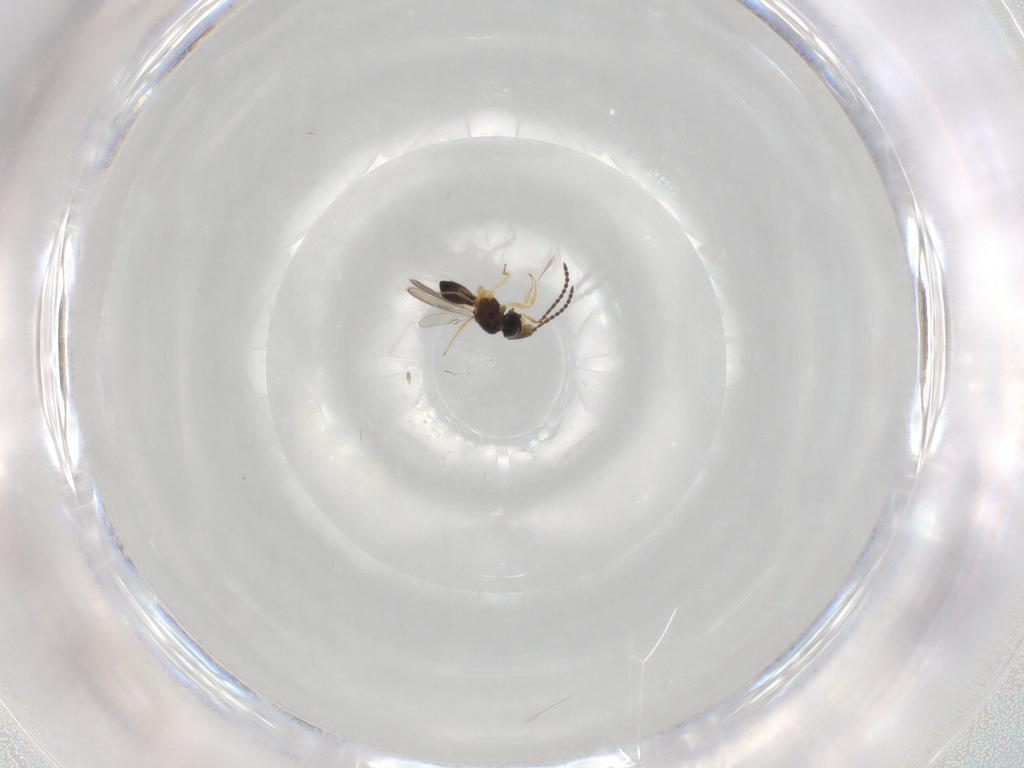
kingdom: Animalia
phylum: Arthropoda
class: Insecta
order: Hymenoptera
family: Scelionidae
